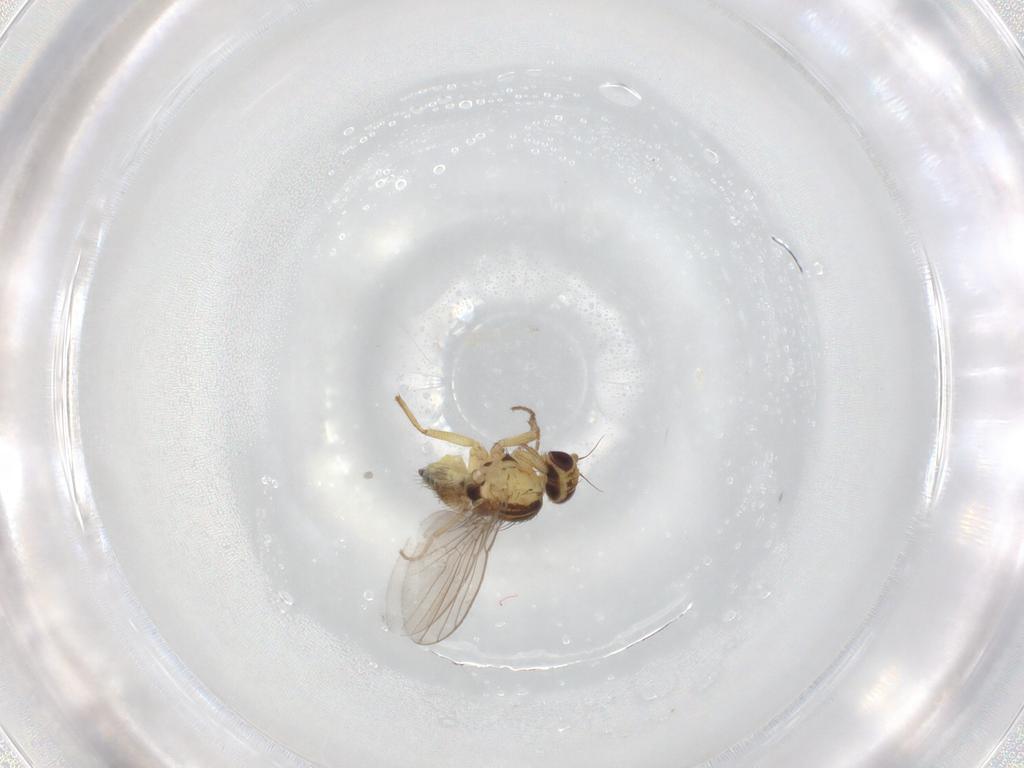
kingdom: Animalia
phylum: Arthropoda
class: Insecta
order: Diptera
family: Agromyzidae
